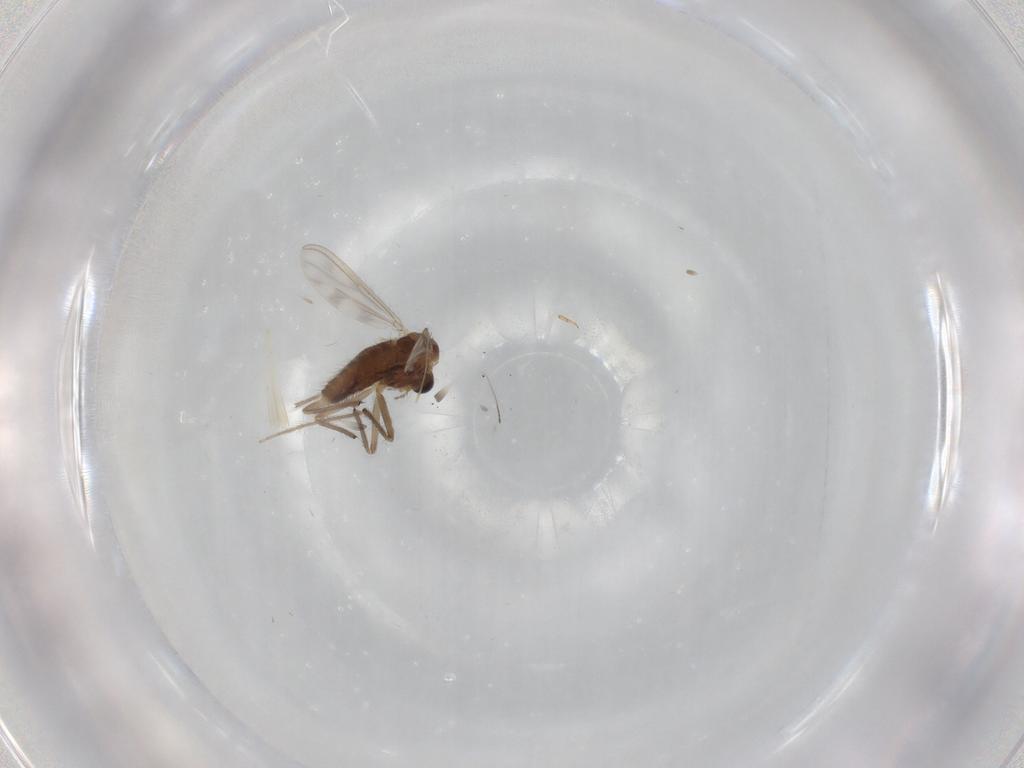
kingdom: Animalia
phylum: Arthropoda
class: Insecta
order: Diptera
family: Chironomidae
